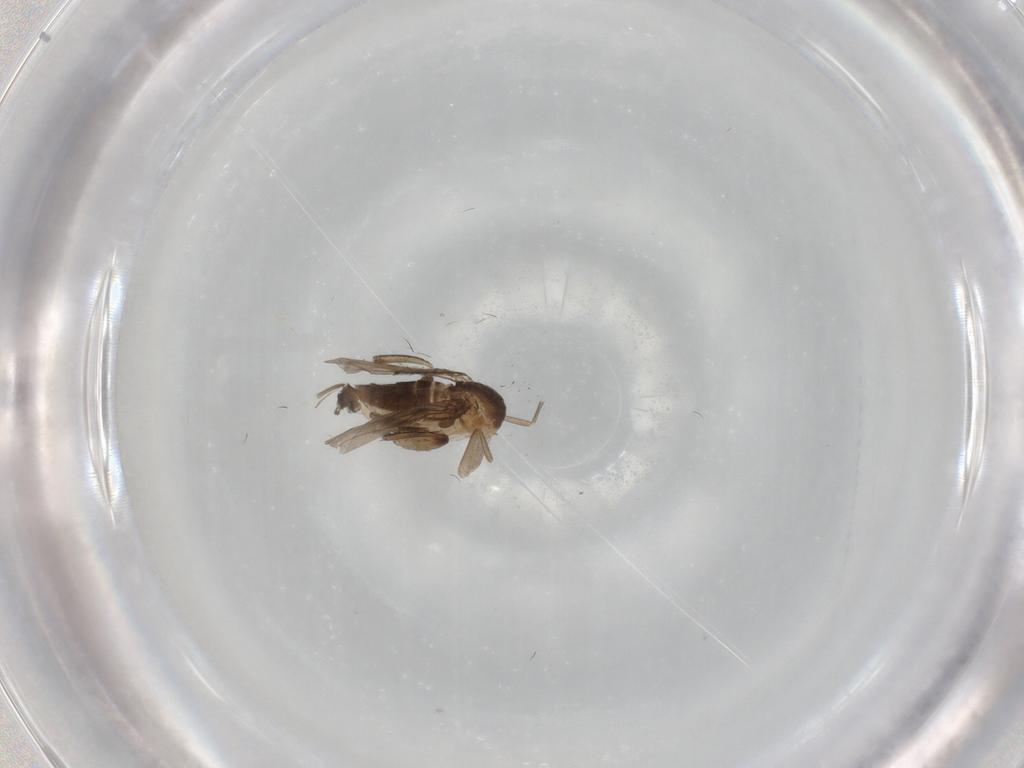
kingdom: Animalia
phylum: Arthropoda
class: Insecta
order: Diptera
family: Phoridae
